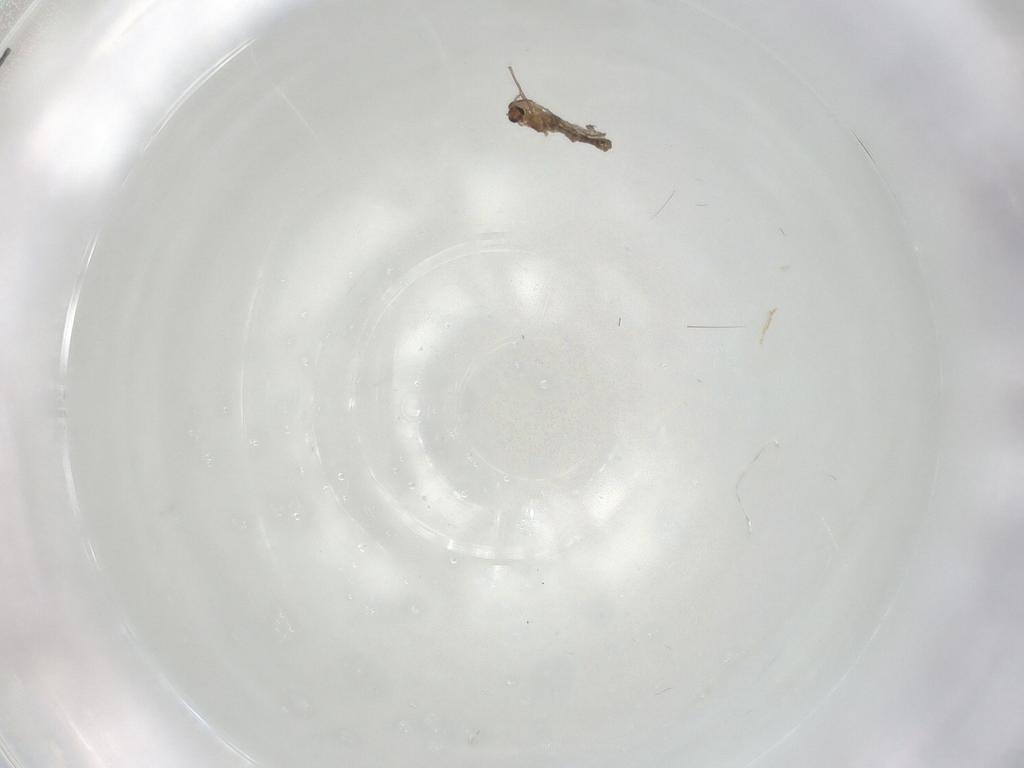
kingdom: Animalia
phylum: Arthropoda
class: Insecta
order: Diptera
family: Chironomidae
